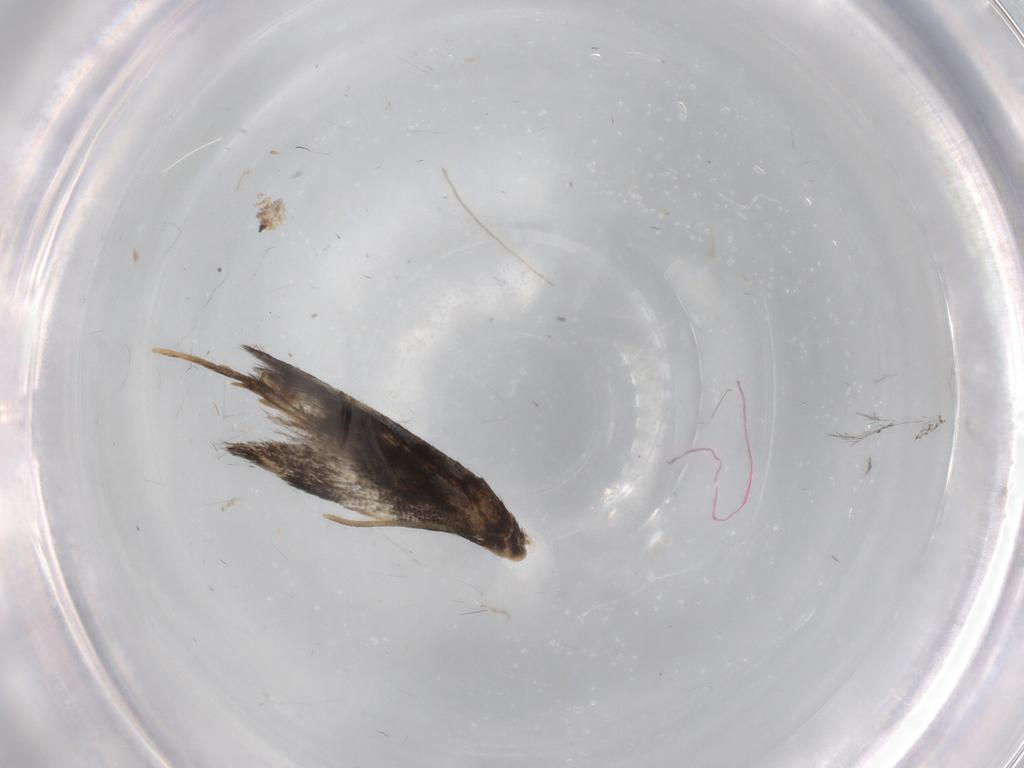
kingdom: Animalia
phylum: Arthropoda
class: Insecta
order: Lepidoptera
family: Gelechiidae
